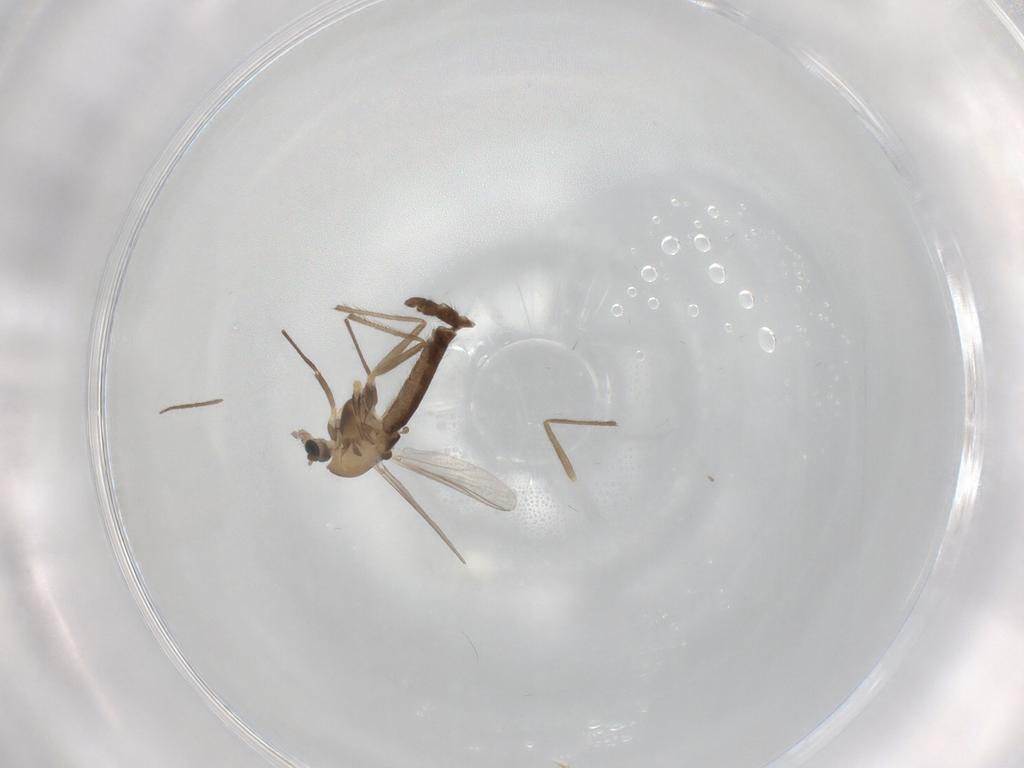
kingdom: Animalia
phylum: Arthropoda
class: Insecta
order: Diptera
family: Chironomidae
